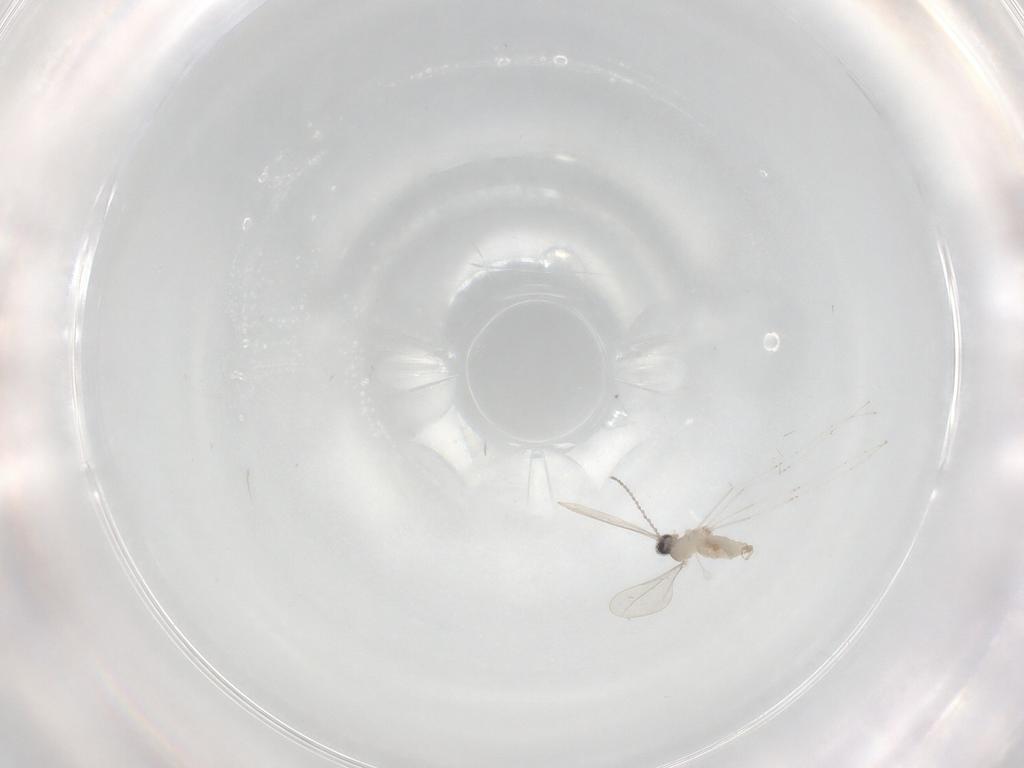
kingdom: Animalia
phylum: Arthropoda
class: Insecta
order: Diptera
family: Cecidomyiidae
